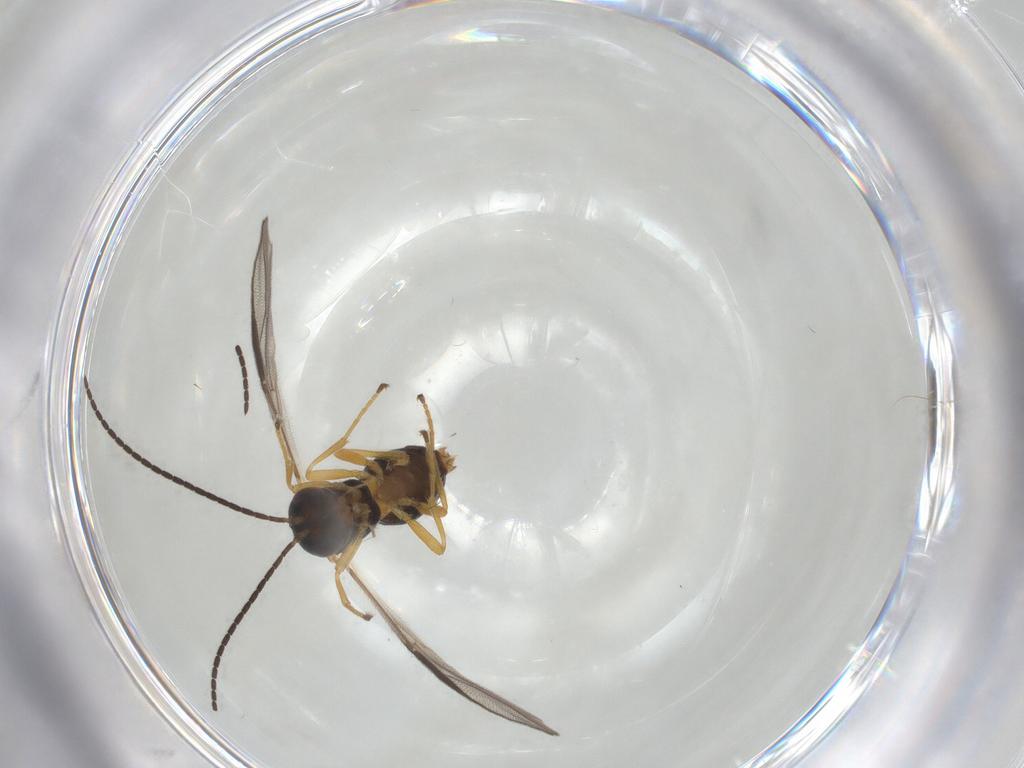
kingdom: Animalia
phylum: Arthropoda
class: Insecta
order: Hymenoptera
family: Braconidae
